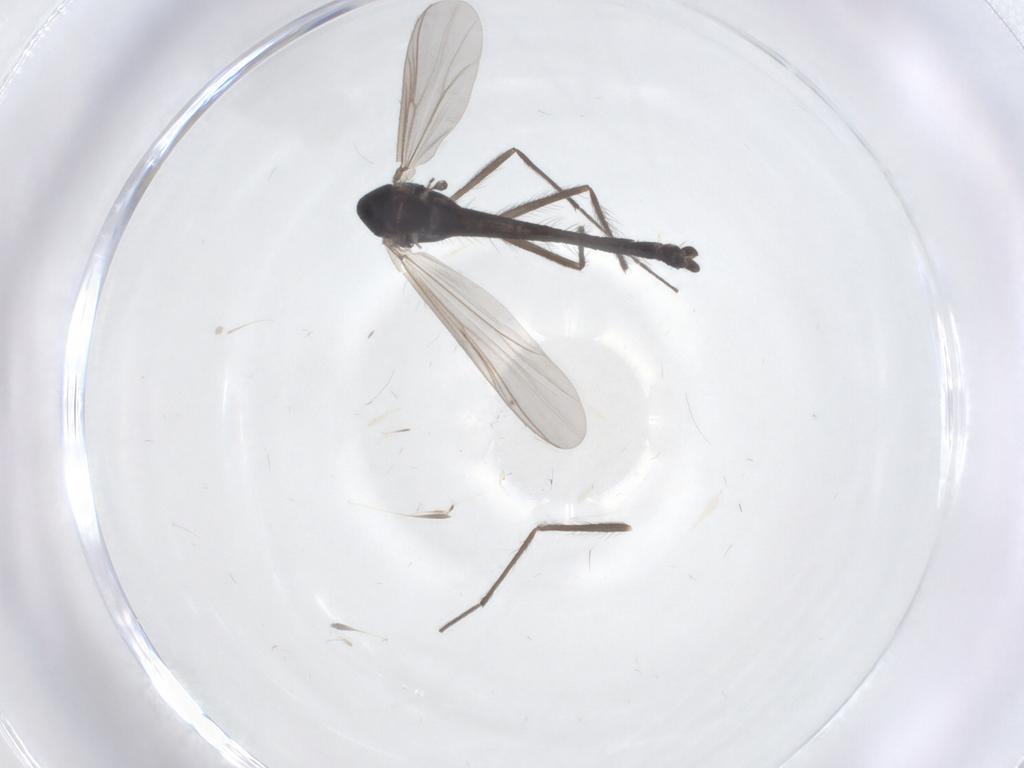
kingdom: Animalia
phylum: Arthropoda
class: Insecta
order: Diptera
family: Chironomidae
